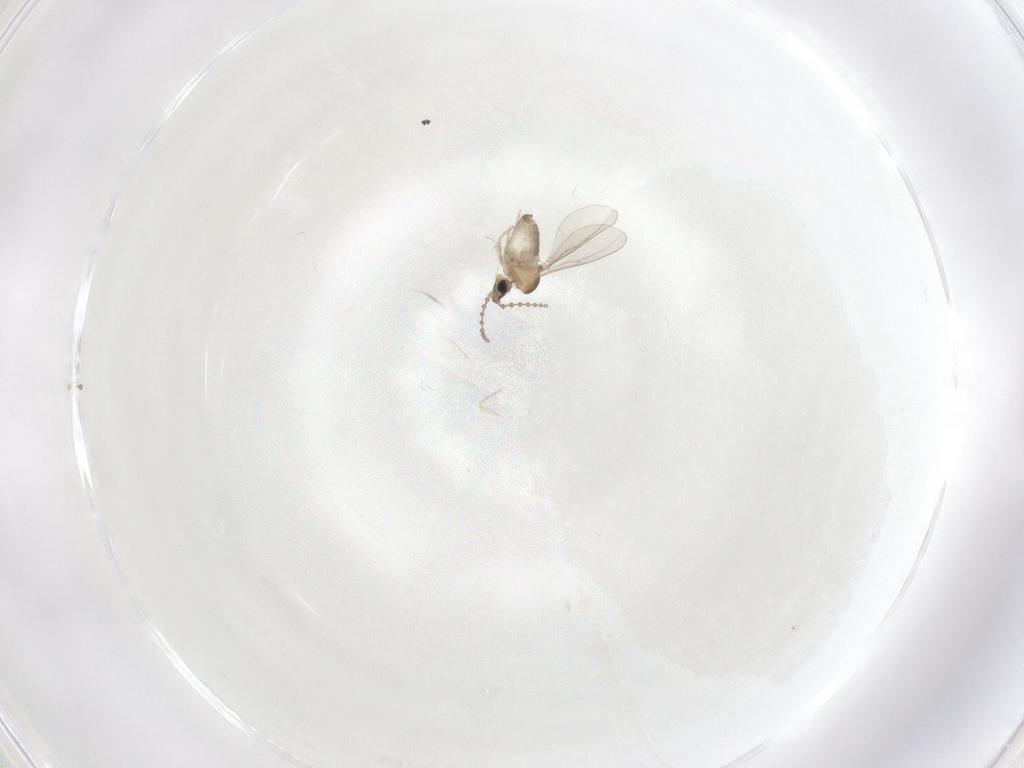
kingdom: Animalia
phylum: Arthropoda
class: Insecta
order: Diptera
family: Cecidomyiidae
